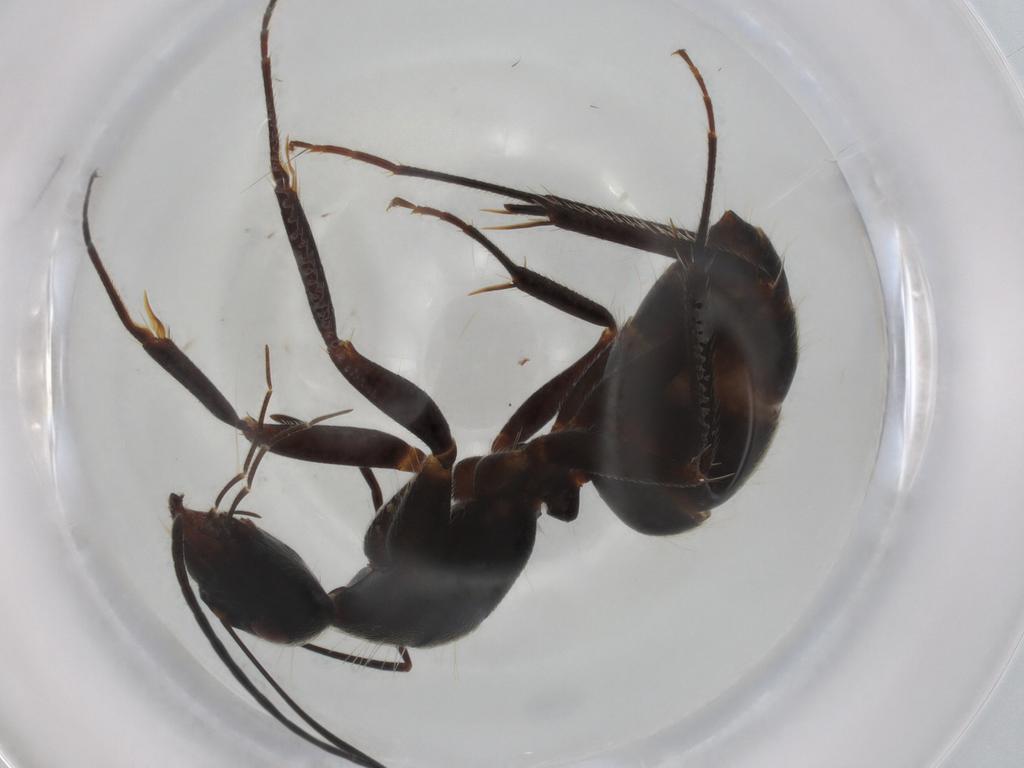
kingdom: Animalia
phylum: Arthropoda
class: Insecta
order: Hymenoptera
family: Formicidae
